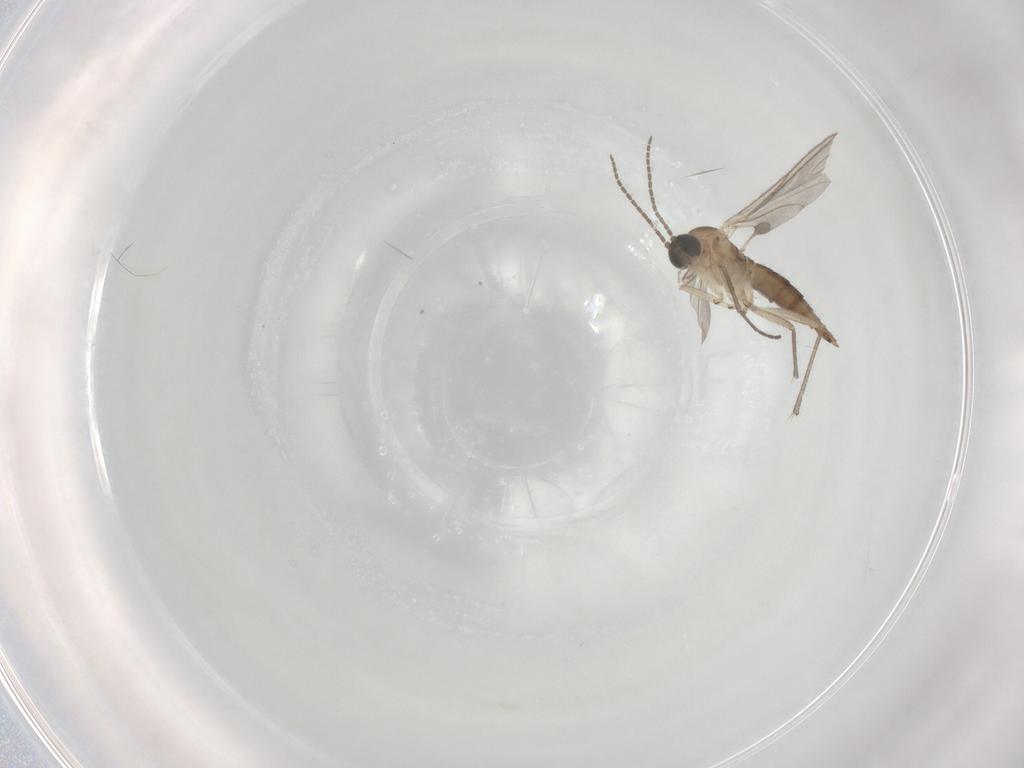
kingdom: Animalia
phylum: Arthropoda
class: Insecta
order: Diptera
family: Sciaridae
